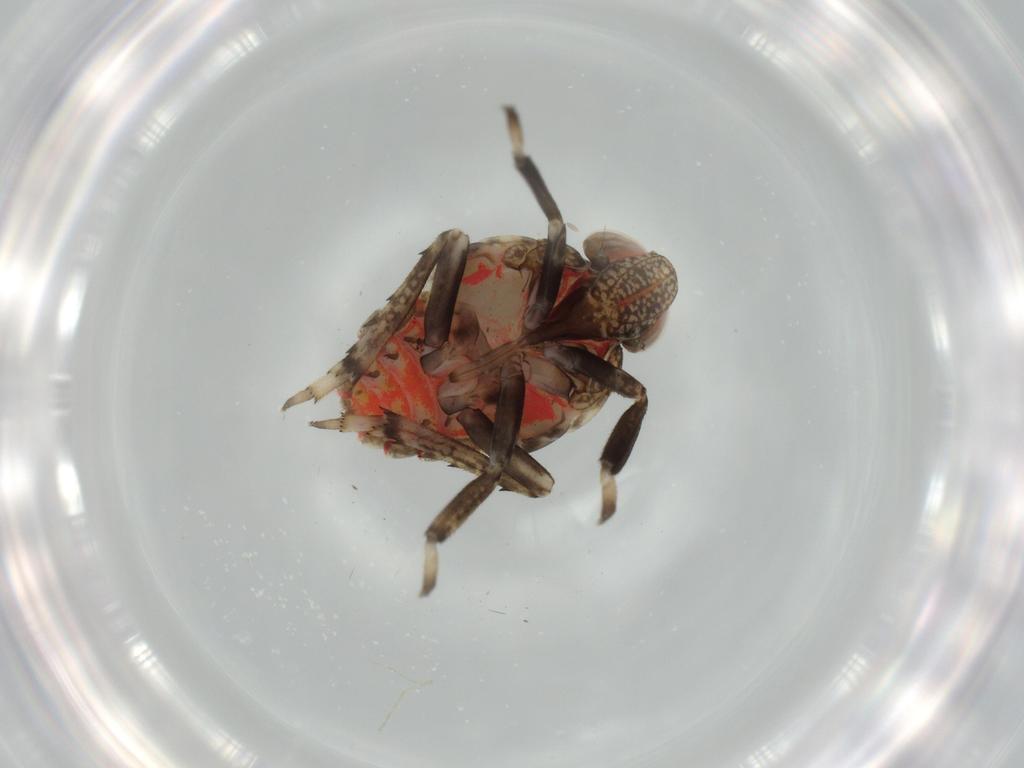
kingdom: Animalia
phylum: Arthropoda
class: Insecta
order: Hemiptera
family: Issidae
